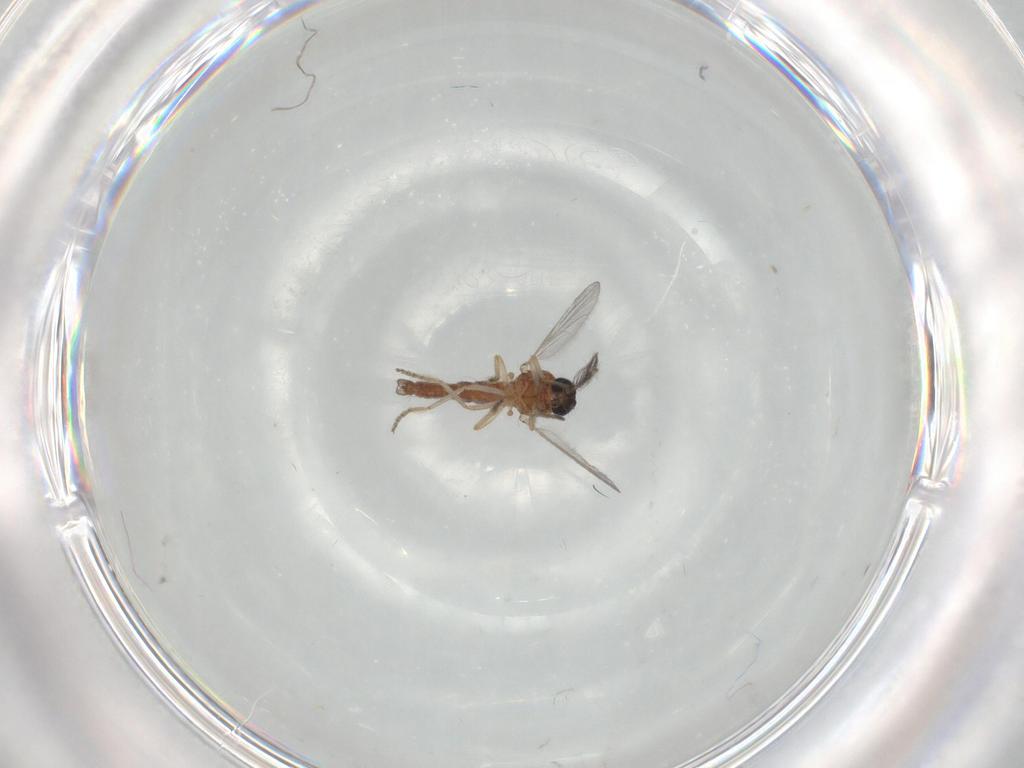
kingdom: Animalia
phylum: Arthropoda
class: Insecta
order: Diptera
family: Ceratopogonidae
